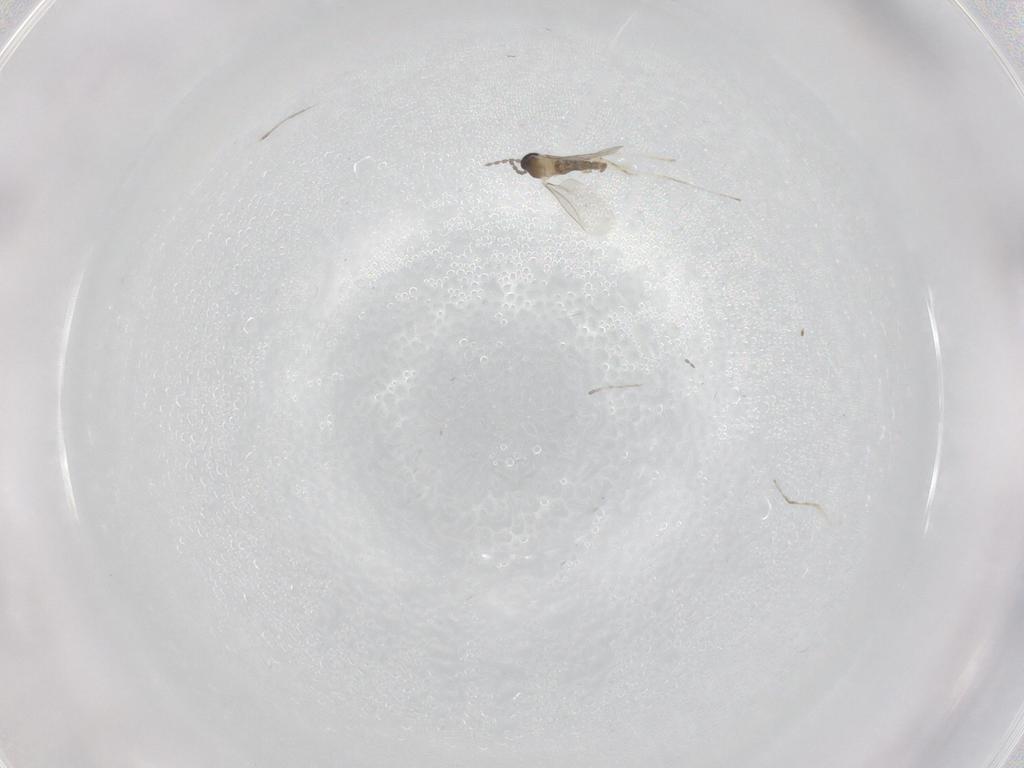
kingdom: Animalia
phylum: Arthropoda
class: Insecta
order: Diptera
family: Cecidomyiidae
